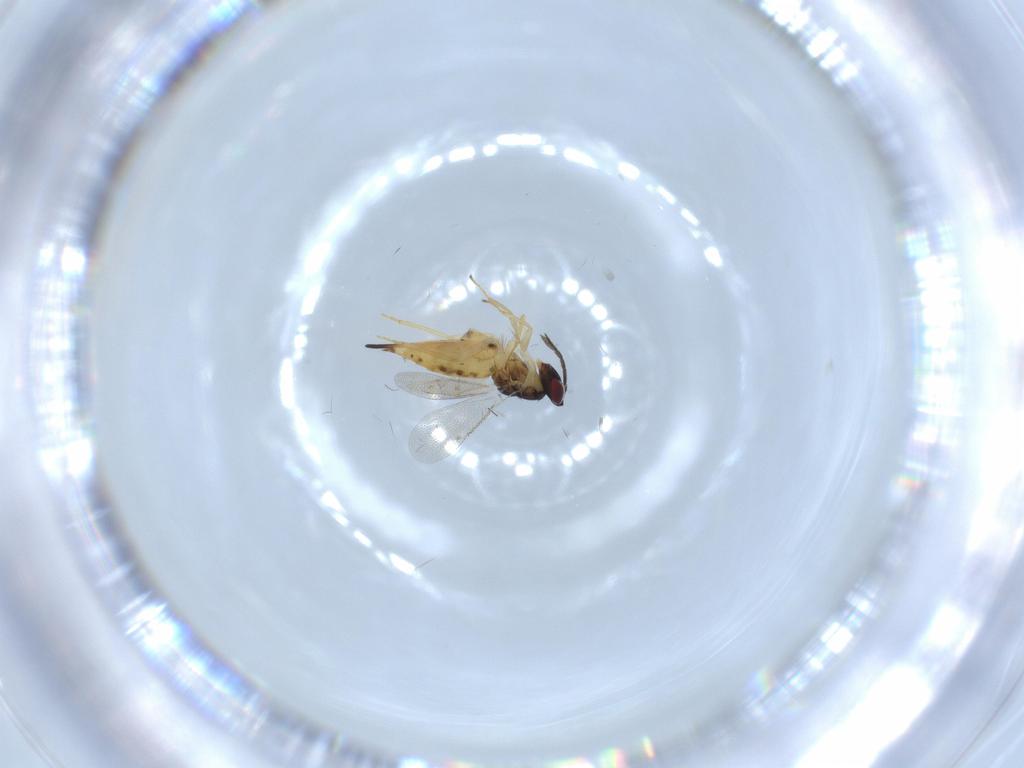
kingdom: Animalia
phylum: Arthropoda
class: Insecta
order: Hymenoptera
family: Eulophidae
